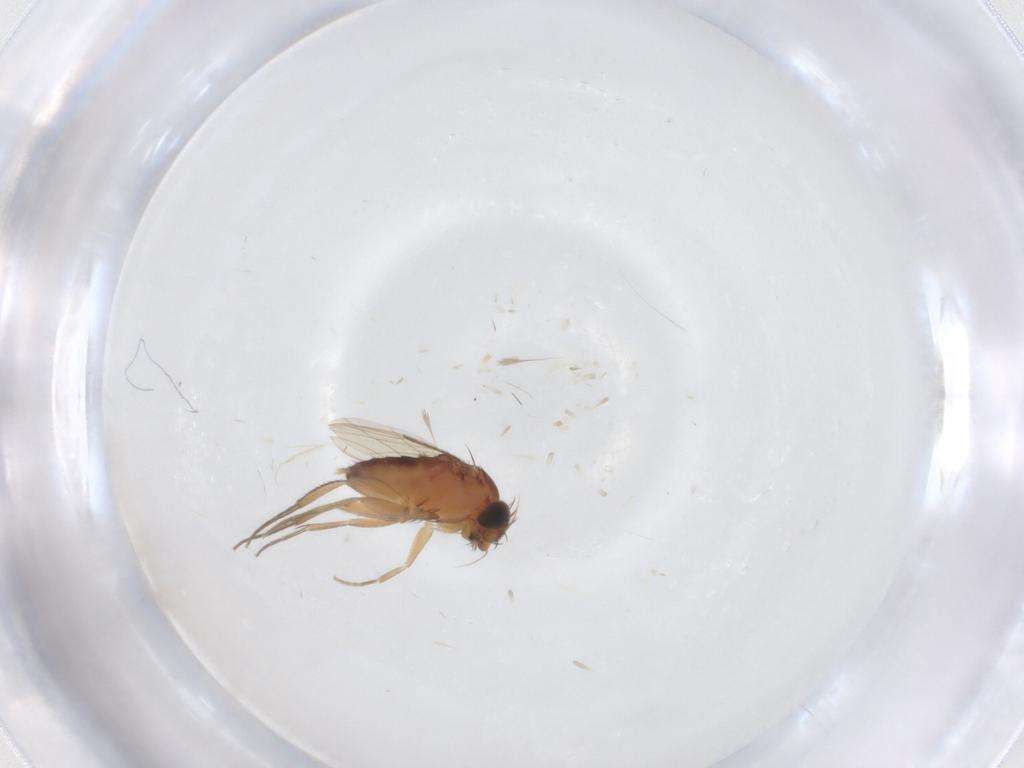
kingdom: Animalia
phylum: Arthropoda
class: Insecta
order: Diptera
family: Phoridae
